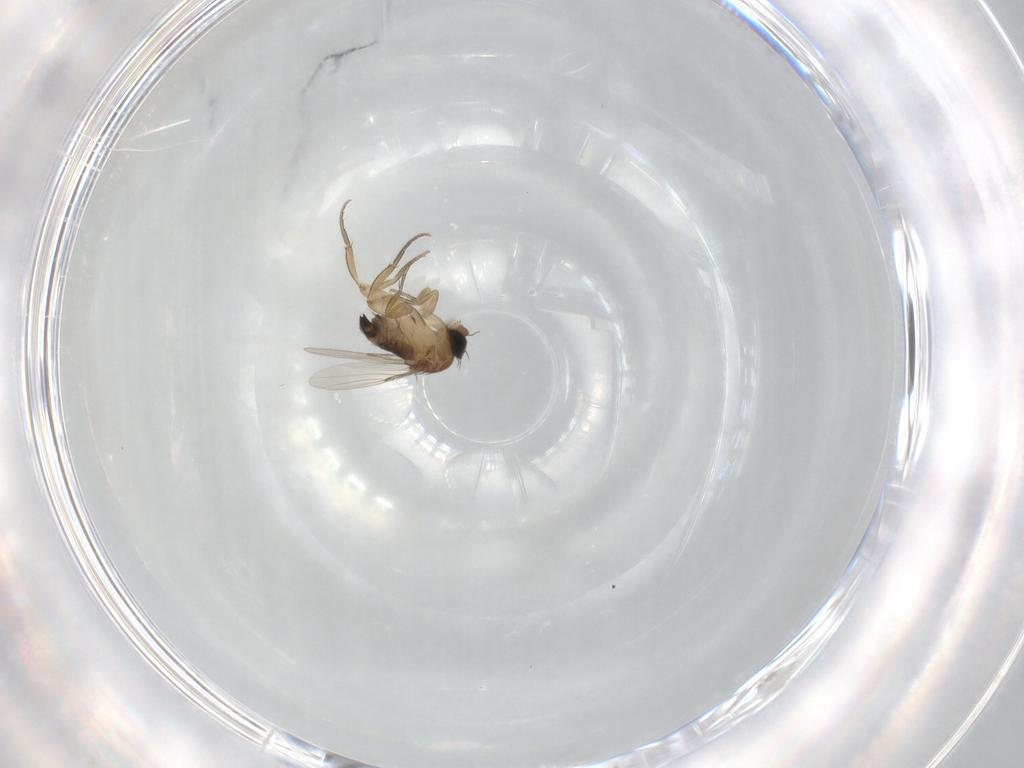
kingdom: Animalia
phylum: Arthropoda
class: Insecta
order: Diptera
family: Phoridae
